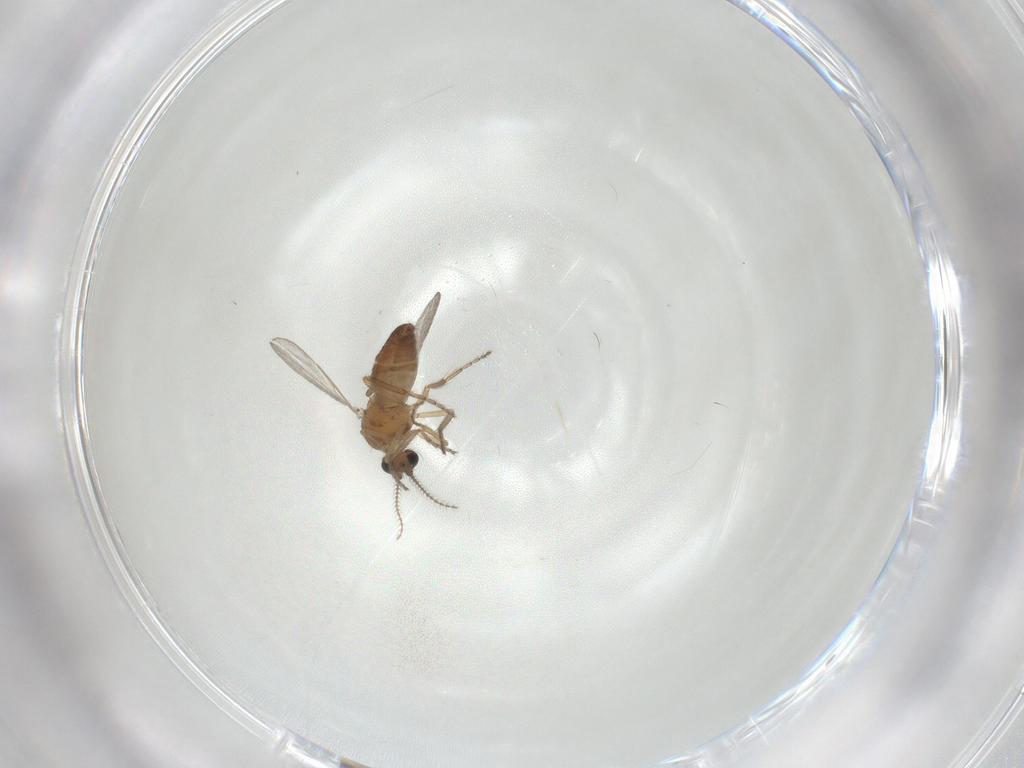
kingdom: Animalia
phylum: Arthropoda
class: Insecta
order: Diptera
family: Ceratopogonidae
